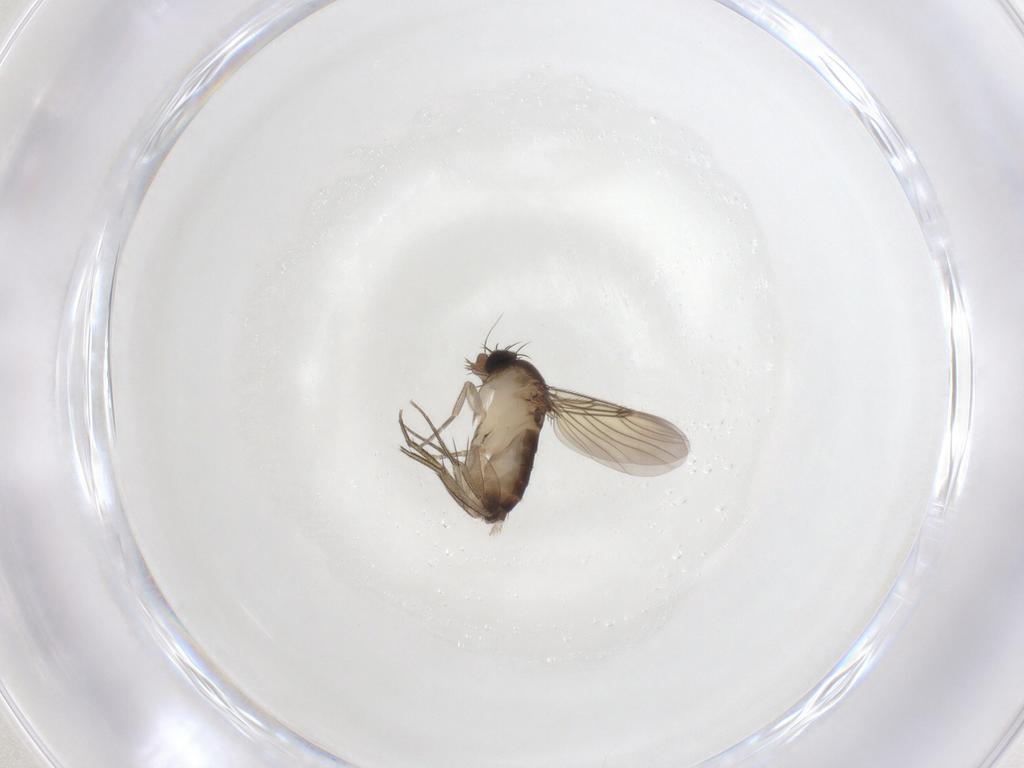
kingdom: Animalia
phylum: Arthropoda
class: Insecta
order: Diptera
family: Phoridae
